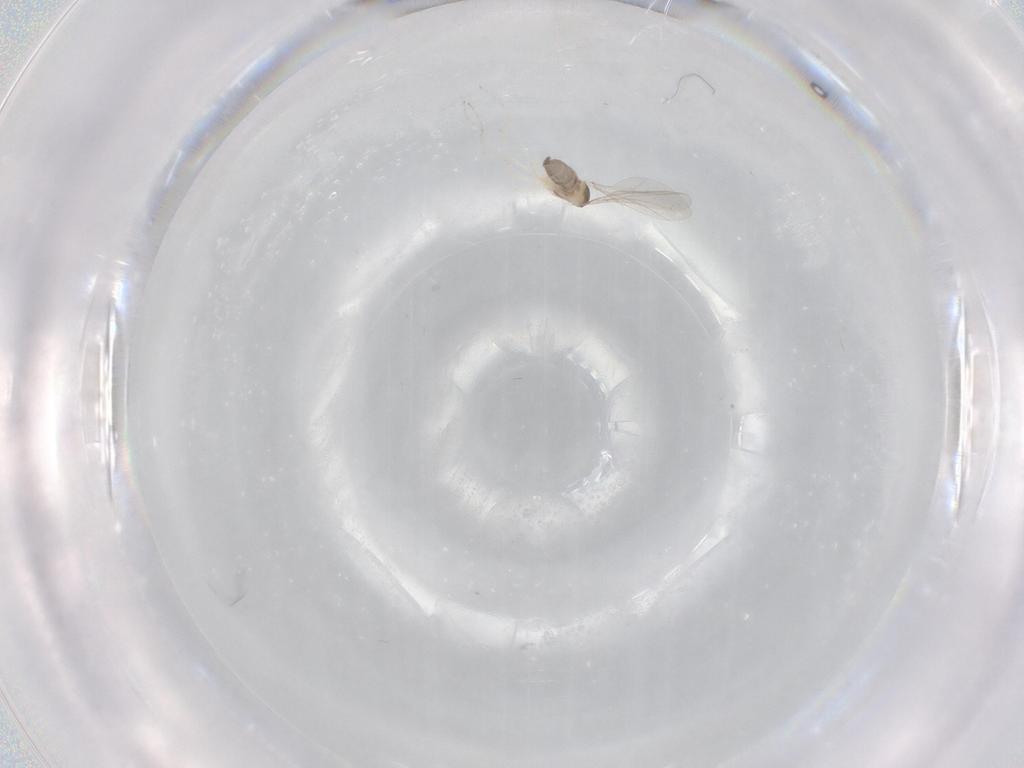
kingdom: Animalia
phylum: Arthropoda
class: Insecta
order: Diptera
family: Cecidomyiidae
